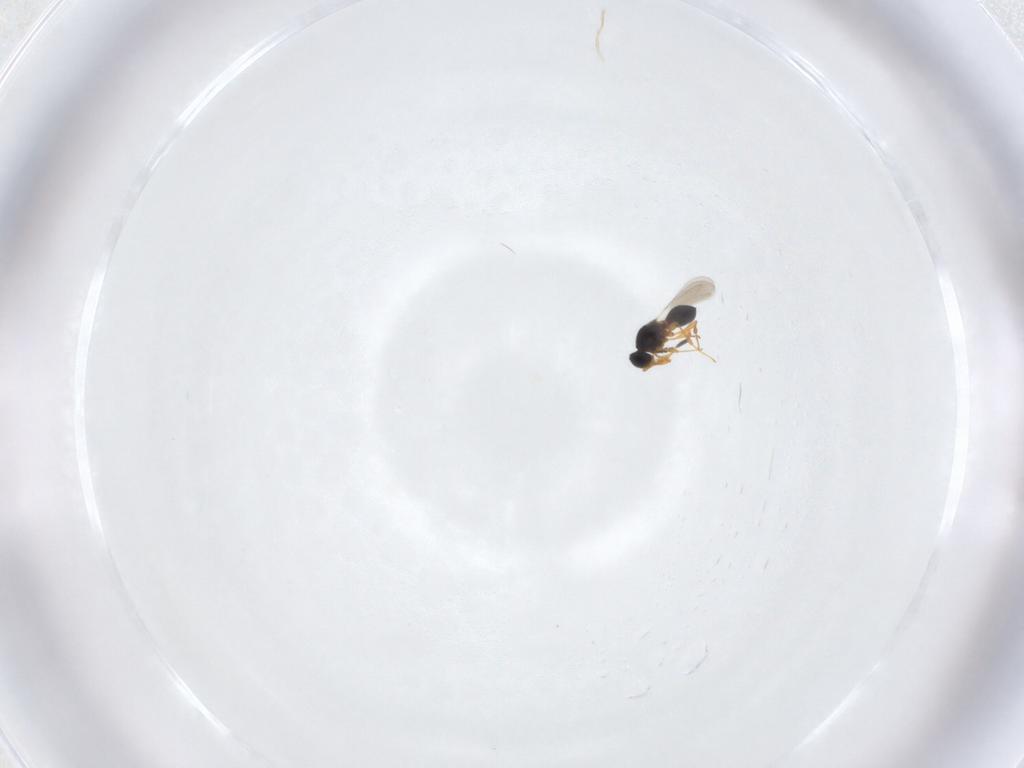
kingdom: Animalia
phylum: Arthropoda
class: Insecta
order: Hymenoptera
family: Platygastridae
